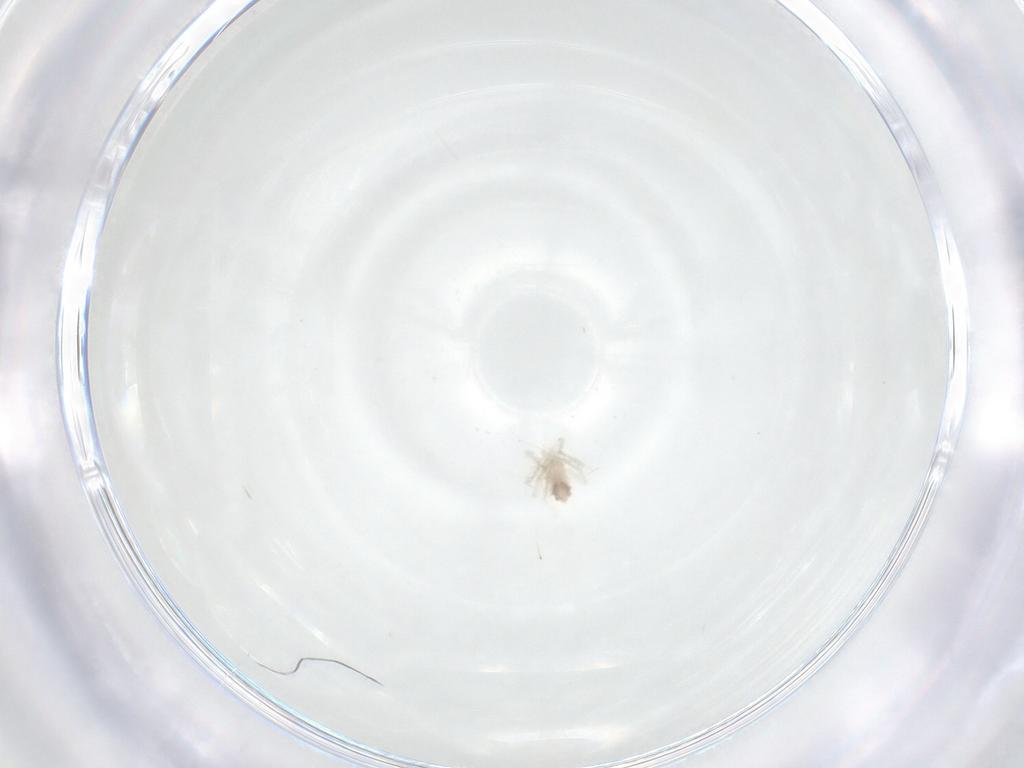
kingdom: Animalia
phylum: Arthropoda
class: Arachnida
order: Trombidiformes
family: Anystidae
